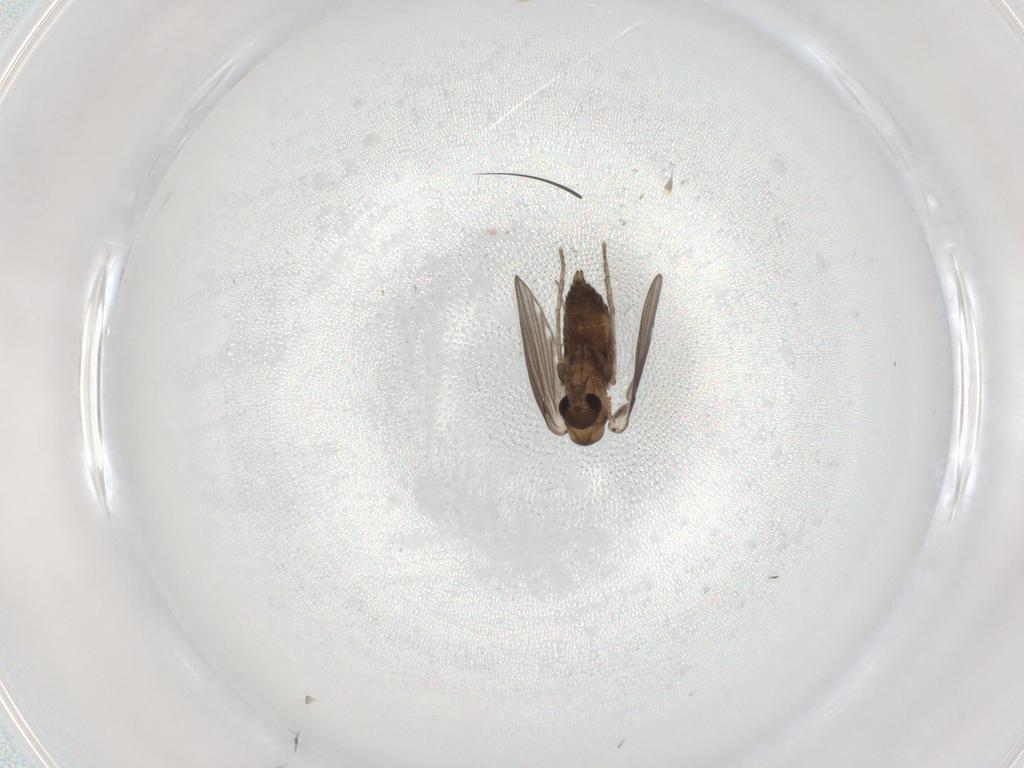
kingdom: Animalia
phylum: Arthropoda
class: Insecta
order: Diptera
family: Psychodidae
